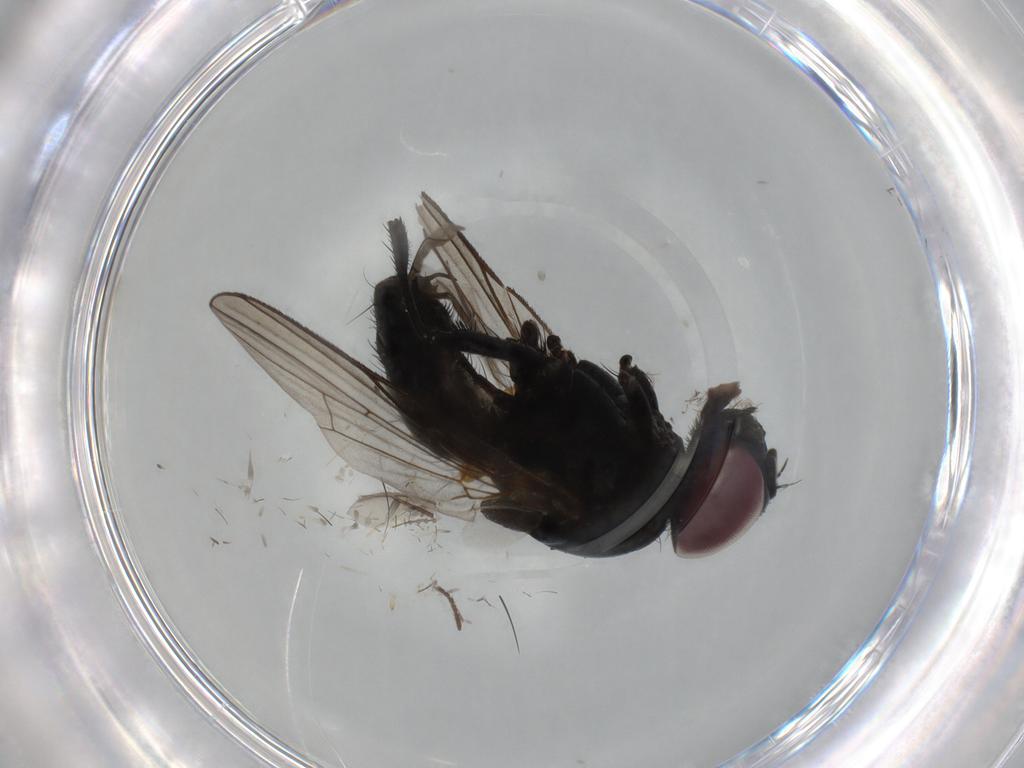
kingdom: Animalia
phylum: Arthropoda
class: Insecta
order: Diptera
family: Fannia
